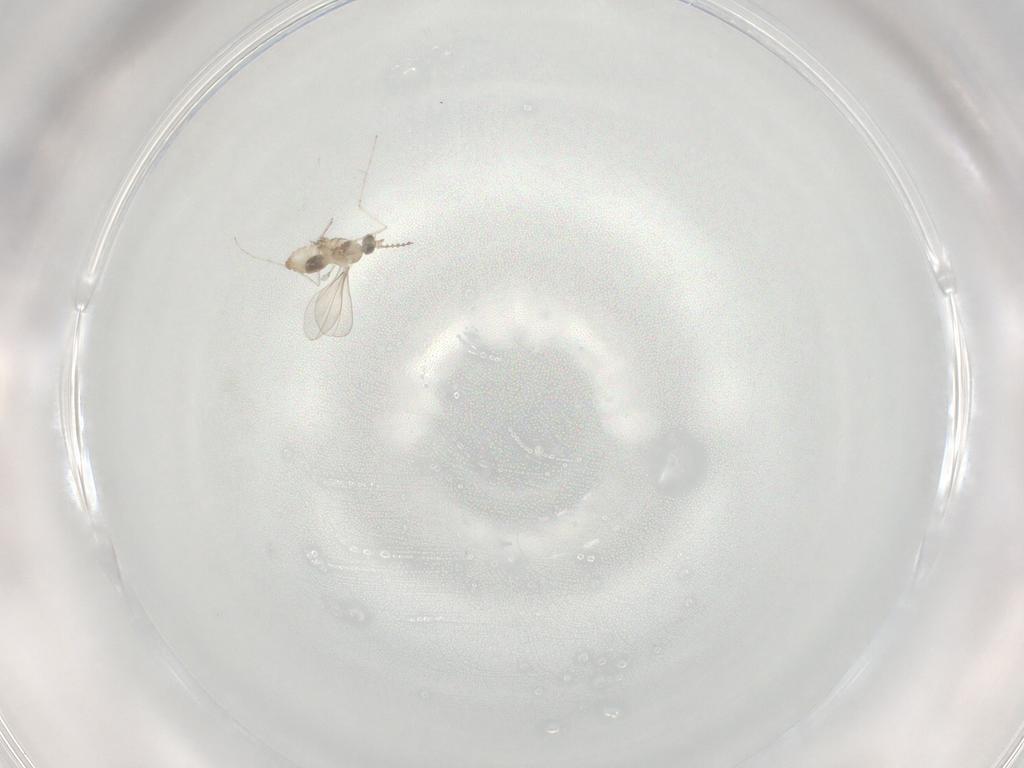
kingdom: Animalia
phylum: Arthropoda
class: Insecta
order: Diptera
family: Cecidomyiidae
